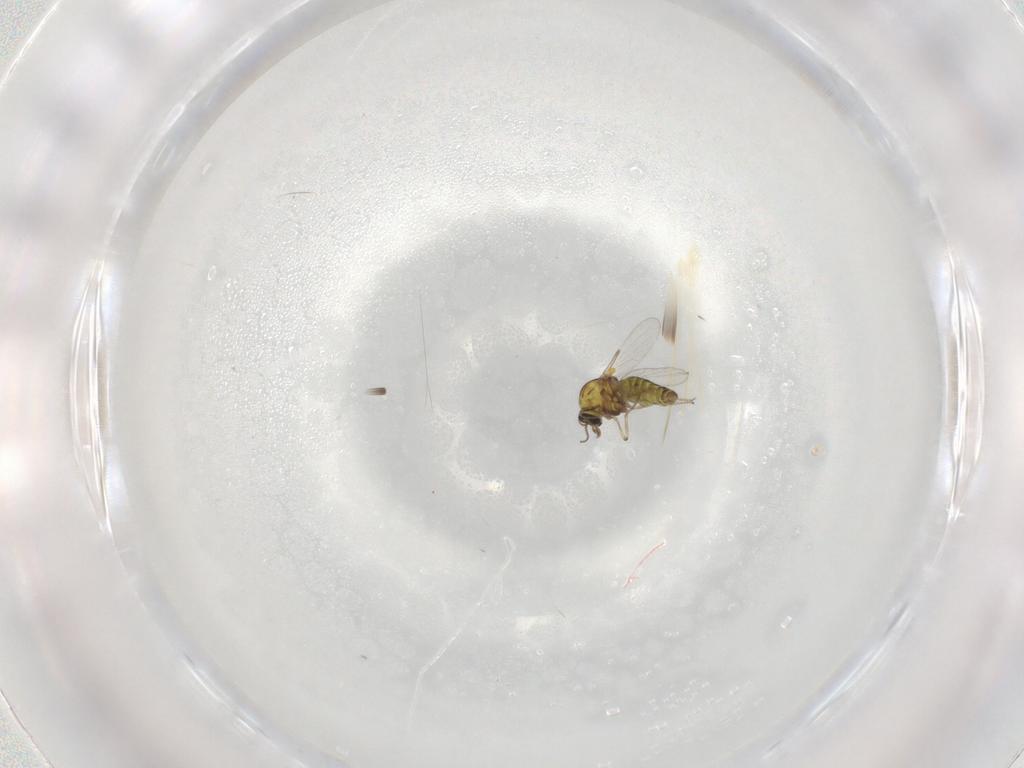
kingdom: Animalia
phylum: Arthropoda
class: Insecta
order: Diptera
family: Ceratopogonidae
